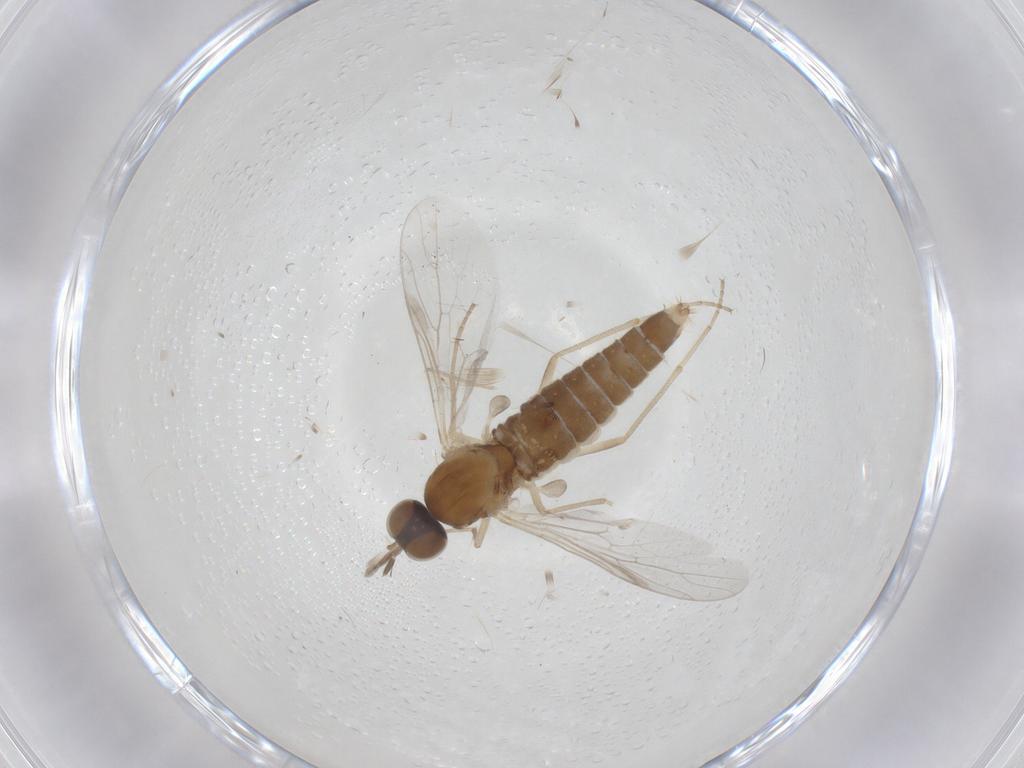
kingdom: Animalia
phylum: Arthropoda
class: Insecta
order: Diptera
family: Scenopinidae
